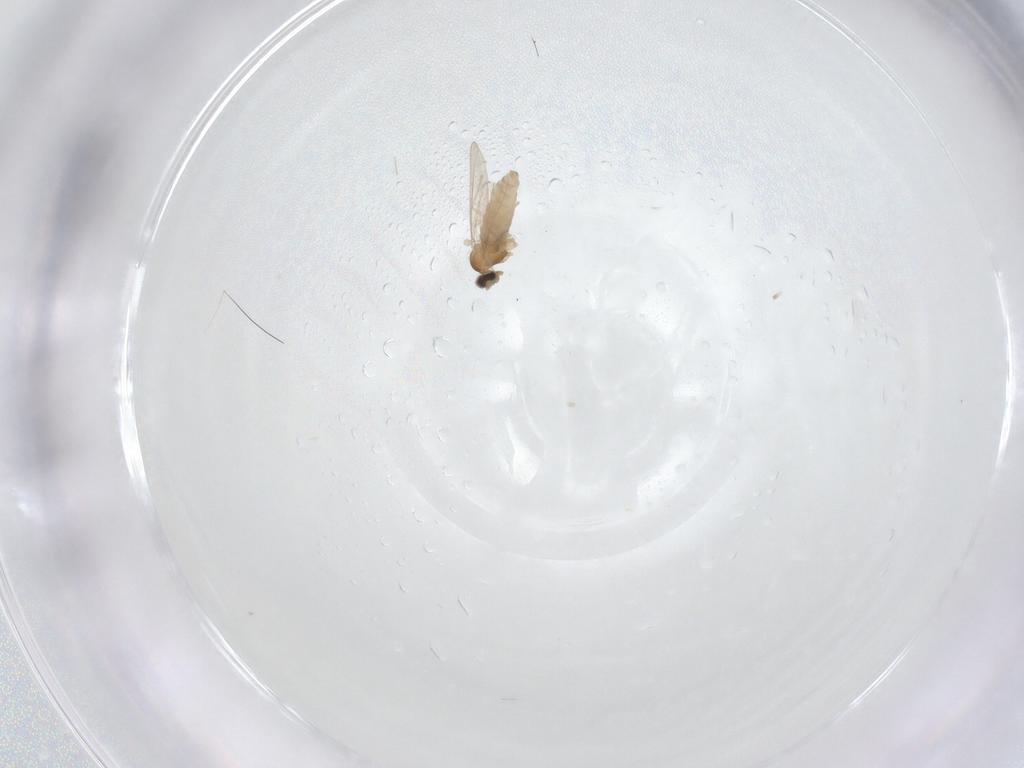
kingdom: Animalia
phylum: Arthropoda
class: Insecta
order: Diptera
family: Cecidomyiidae
